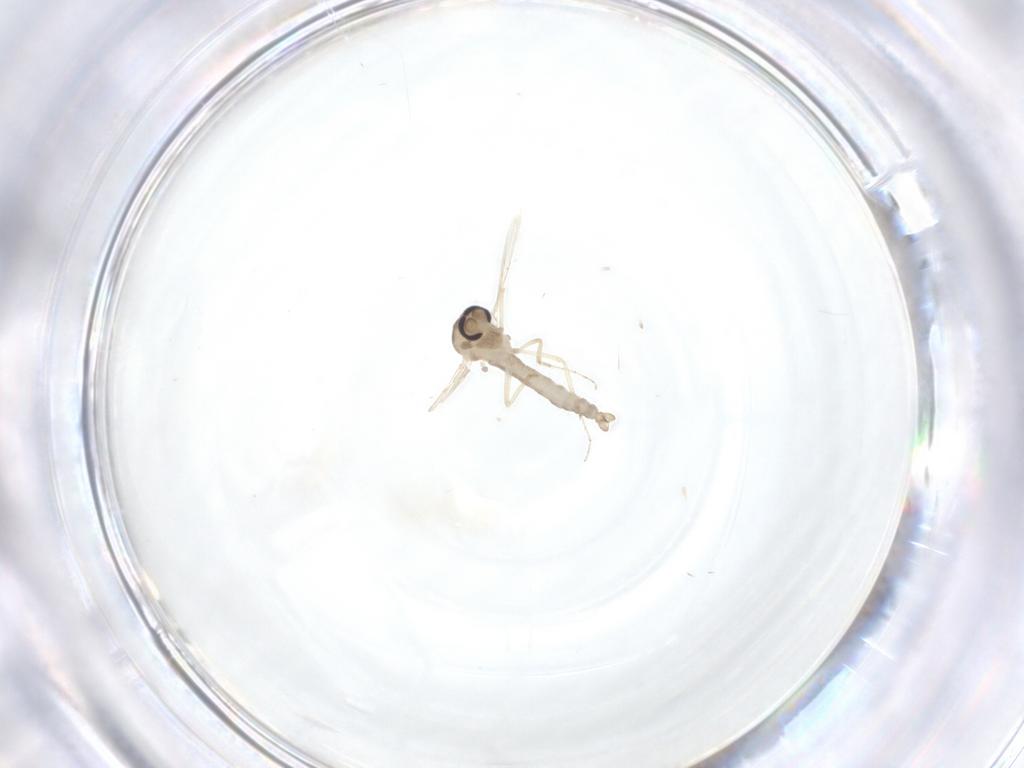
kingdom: Animalia
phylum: Arthropoda
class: Insecta
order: Diptera
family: Ceratopogonidae
